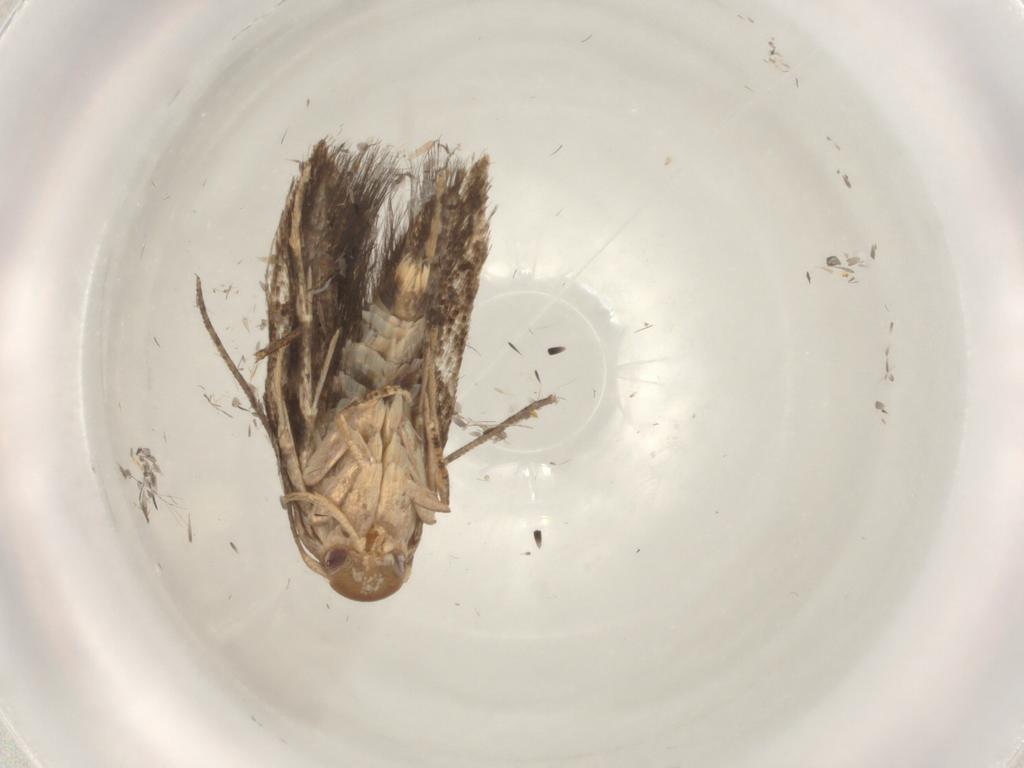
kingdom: Animalia
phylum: Arthropoda
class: Insecta
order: Lepidoptera
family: Momphidae
